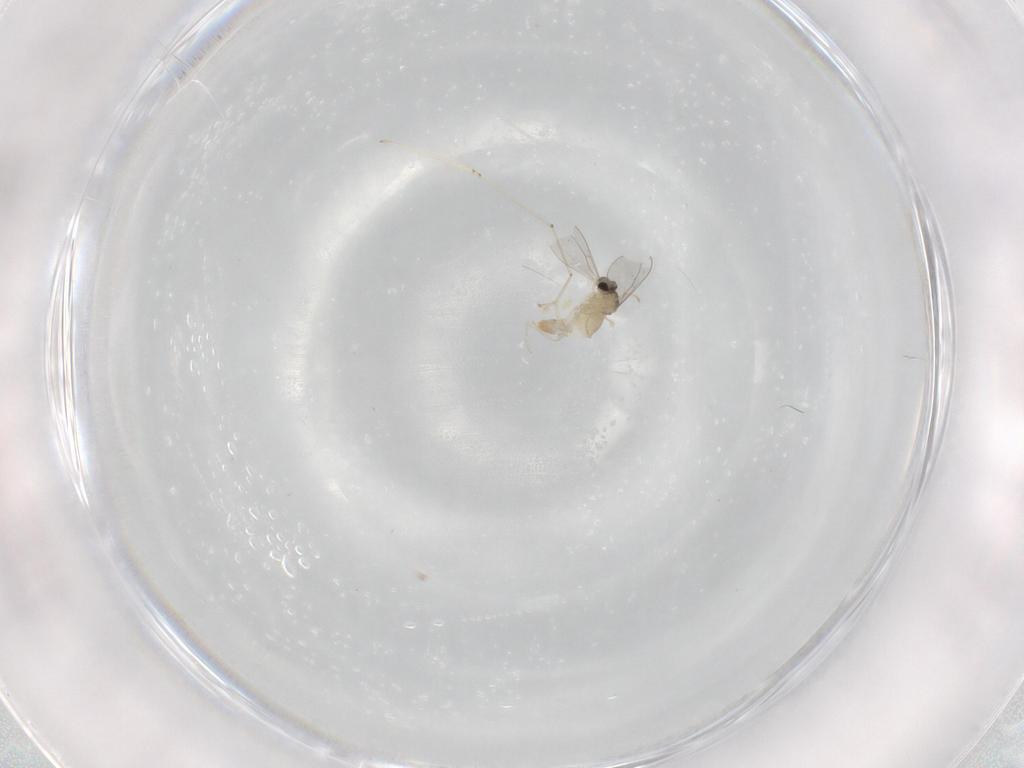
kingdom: Animalia
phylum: Arthropoda
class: Insecta
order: Diptera
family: Cecidomyiidae
